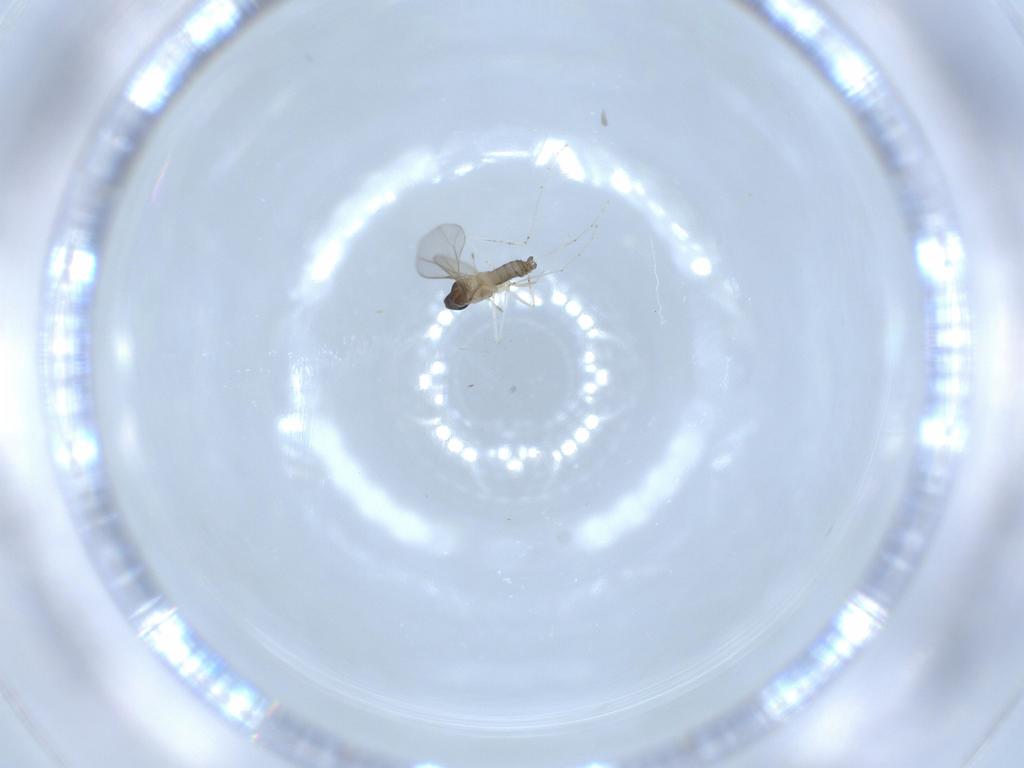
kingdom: Animalia
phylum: Arthropoda
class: Insecta
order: Diptera
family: Cecidomyiidae
